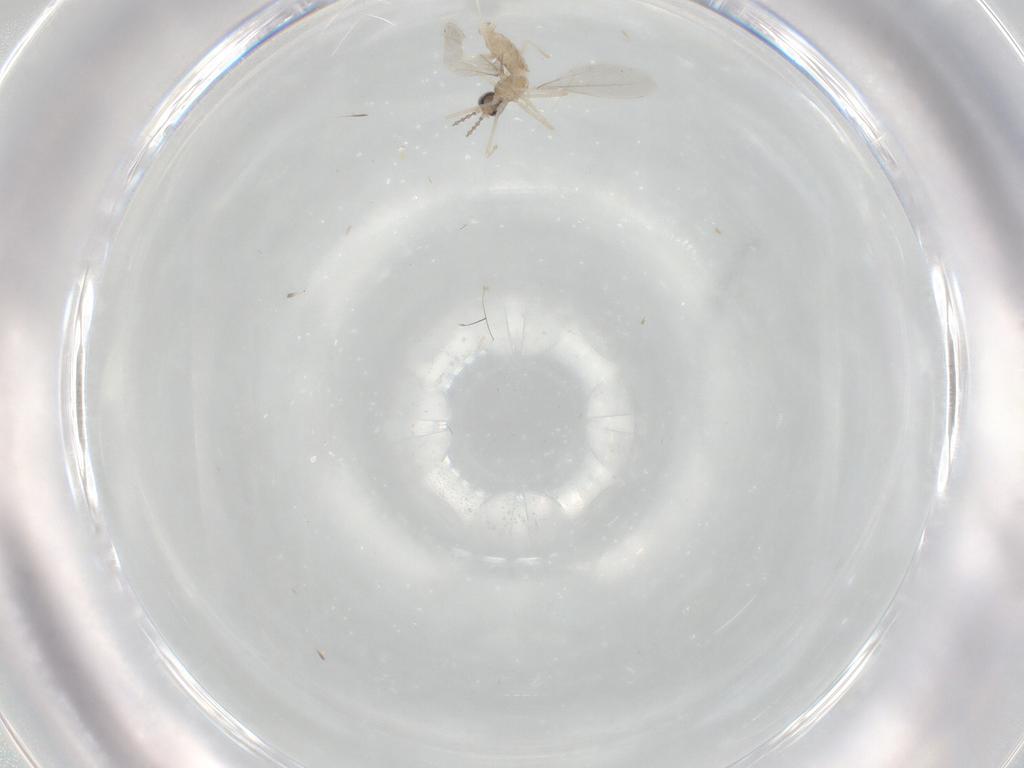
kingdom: Animalia
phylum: Arthropoda
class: Insecta
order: Diptera
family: Cecidomyiidae
